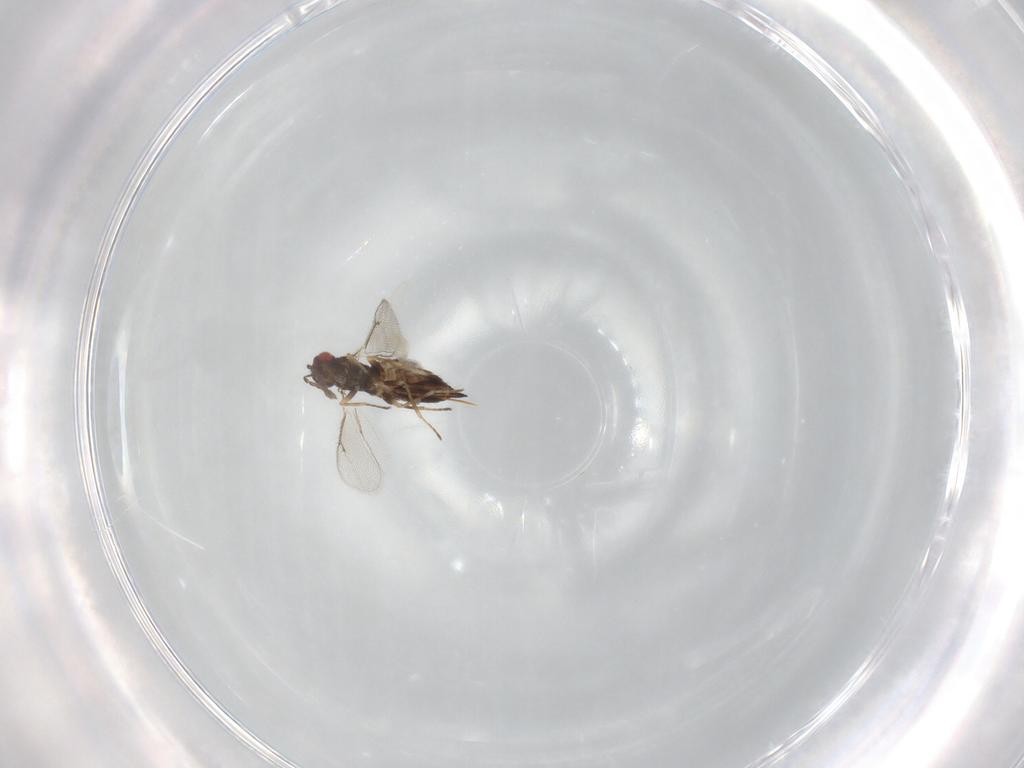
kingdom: Animalia
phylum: Arthropoda
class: Insecta
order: Hymenoptera
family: Eulophidae
